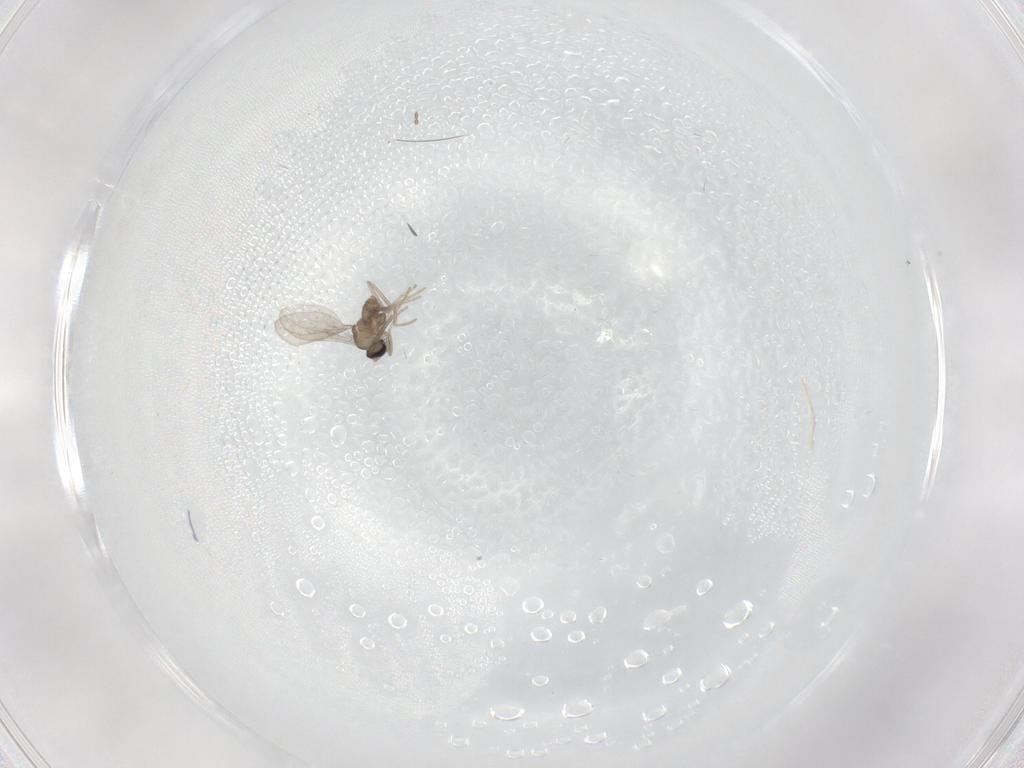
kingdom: Animalia
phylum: Arthropoda
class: Insecta
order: Diptera
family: Cecidomyiidae
